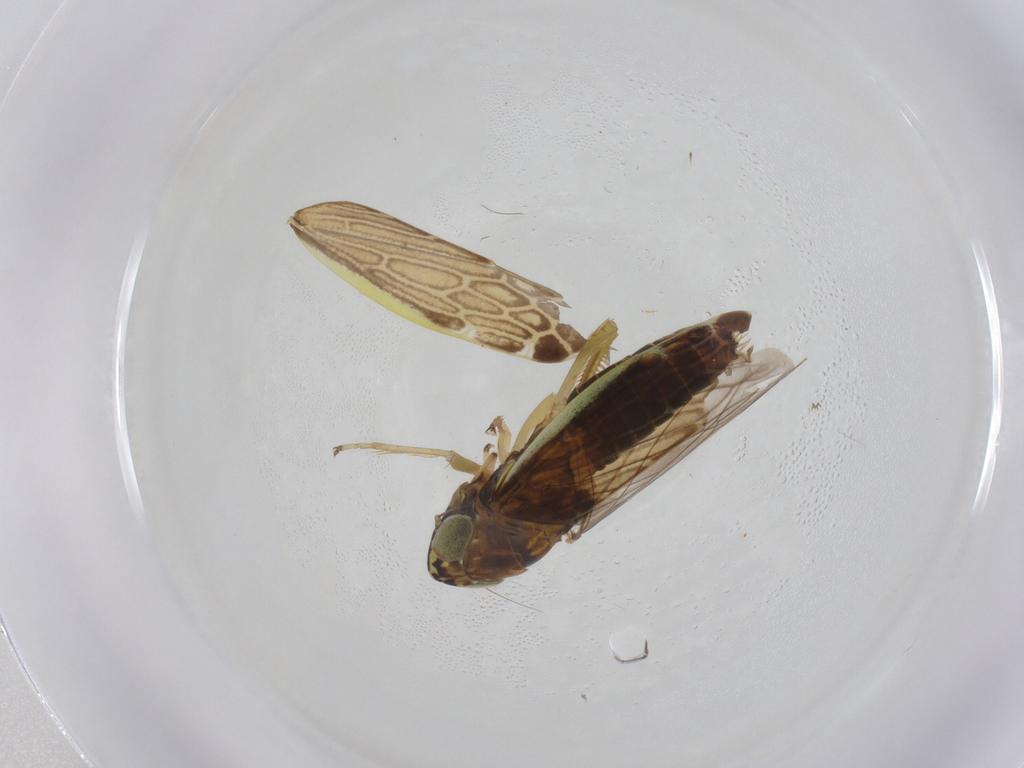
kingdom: Animalia
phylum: Arthropoda
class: Insecta
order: Hemiptera
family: Cicadellidae
